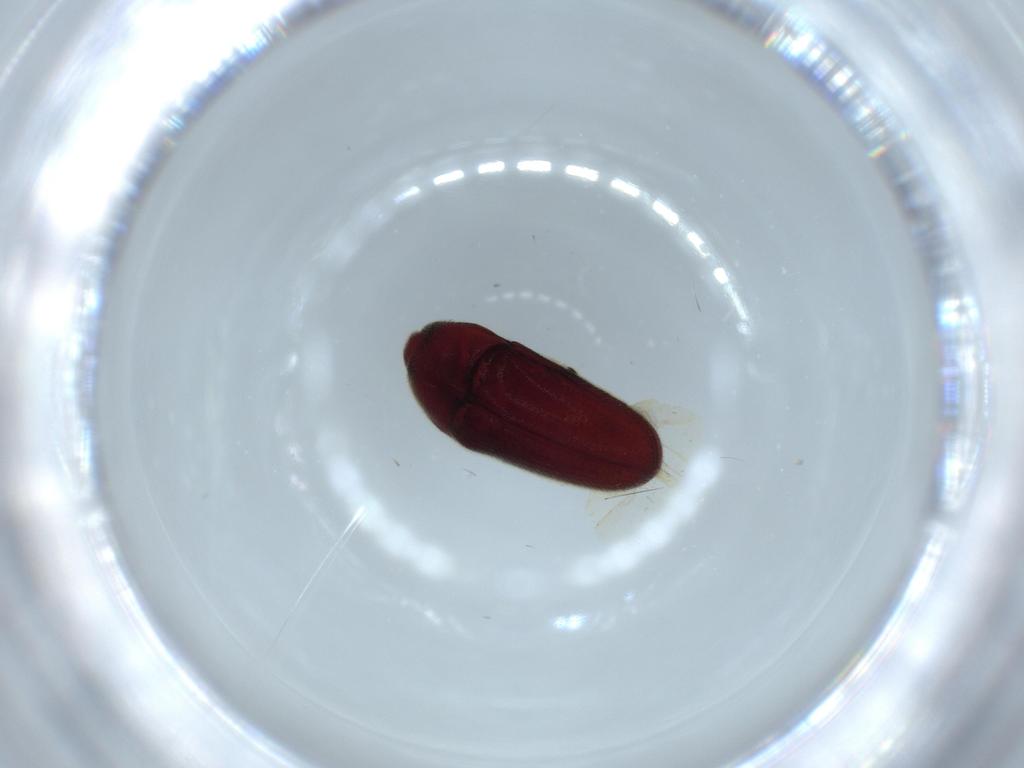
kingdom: Animalia
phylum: Arthropoda
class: Insecta
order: Coleoptera
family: Throscidae
